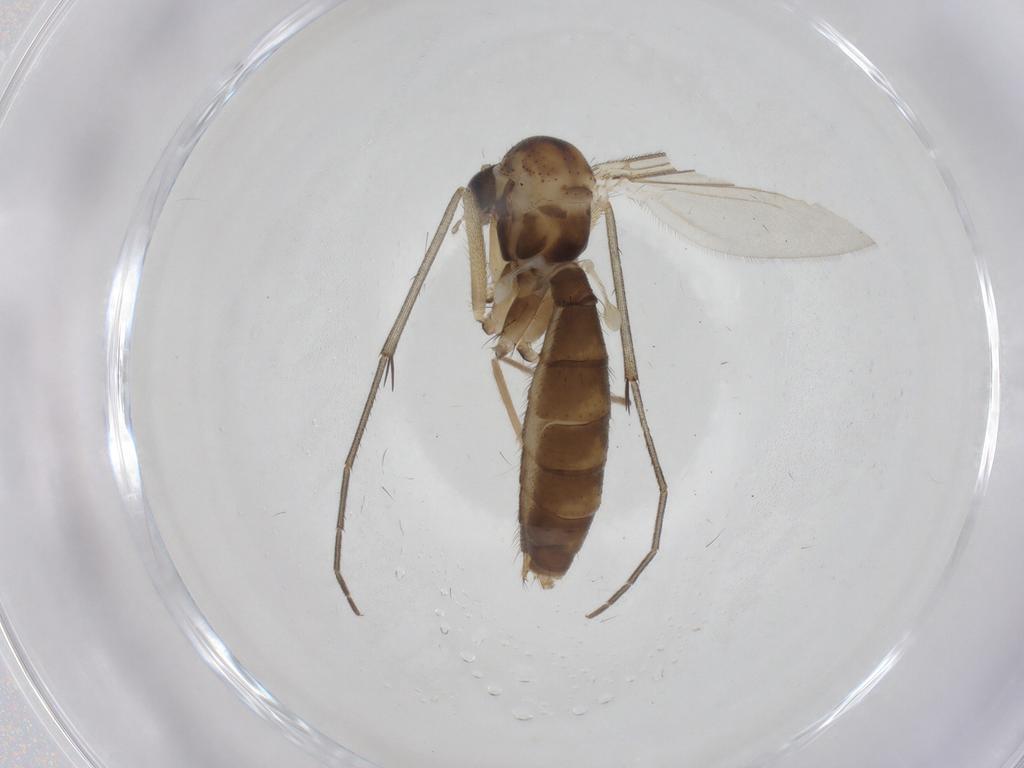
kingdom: Animalia
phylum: Arthropoda
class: Insecta
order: Diptera
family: Mycetophilidae
